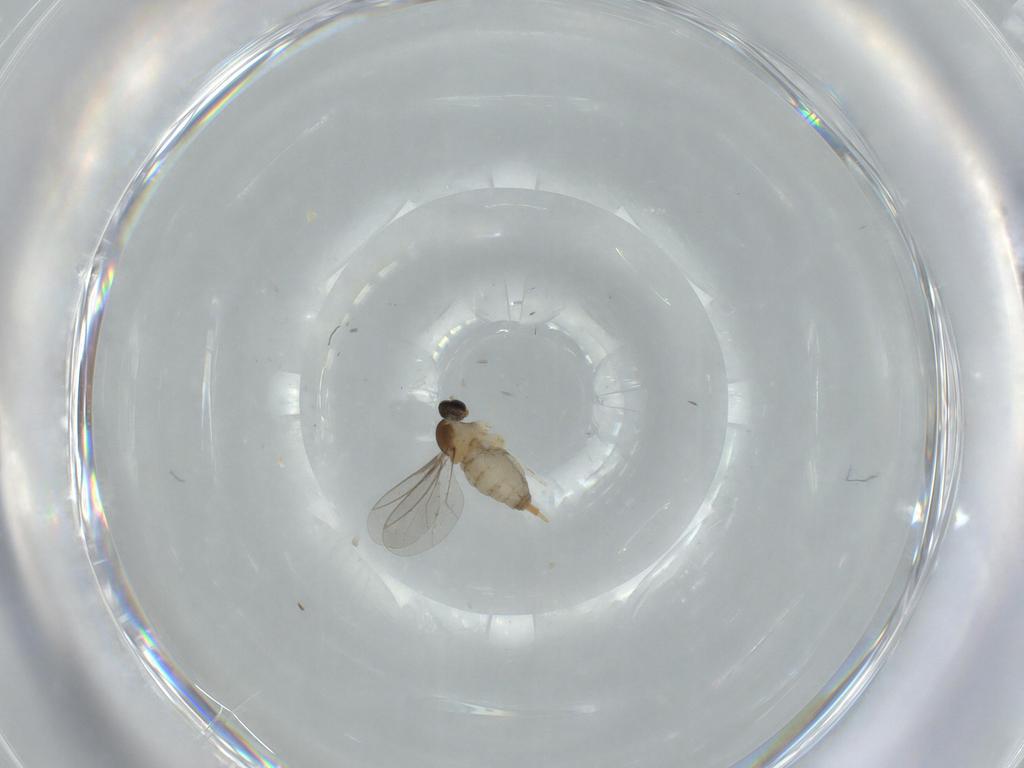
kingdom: Animalia
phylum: Arthropoda
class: Insecta
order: Diptera
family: Cecidomyiidae
